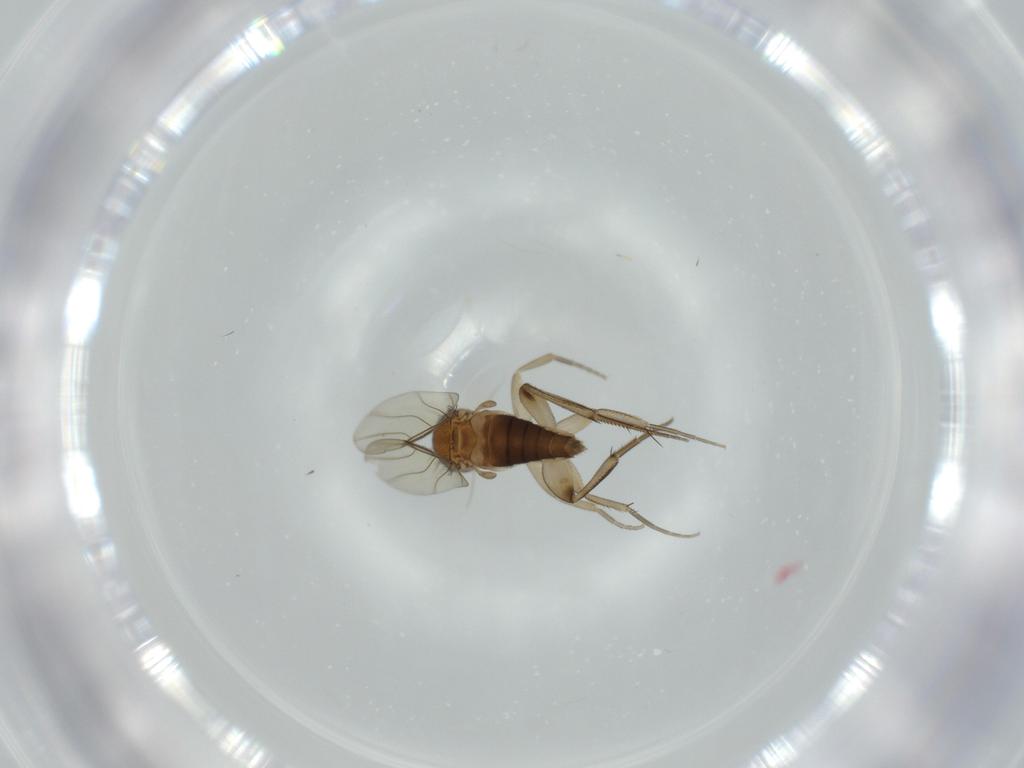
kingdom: Animalia
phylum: Arthropoda
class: Insecta
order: Diptera
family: Phoridae
